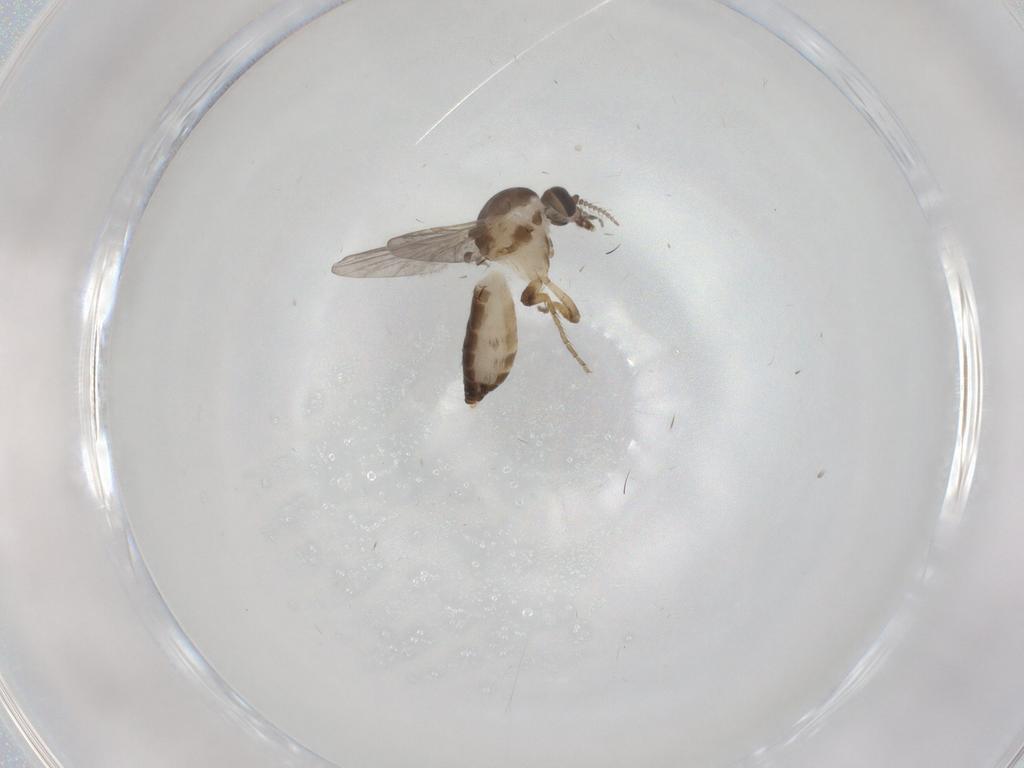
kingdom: Animalia
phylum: Arthropoda
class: Insecta
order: Diptera
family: Ceratopogonidae
